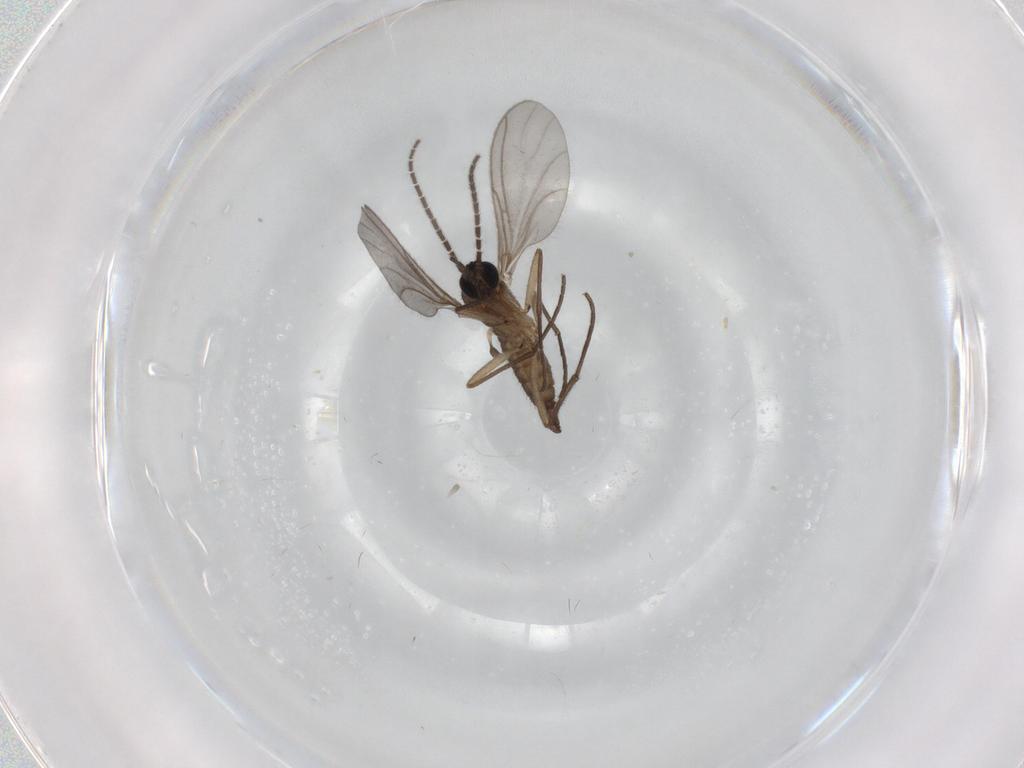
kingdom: Animalia
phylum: Arthropoda
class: Insecta
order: Diptera
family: Sciaridae
